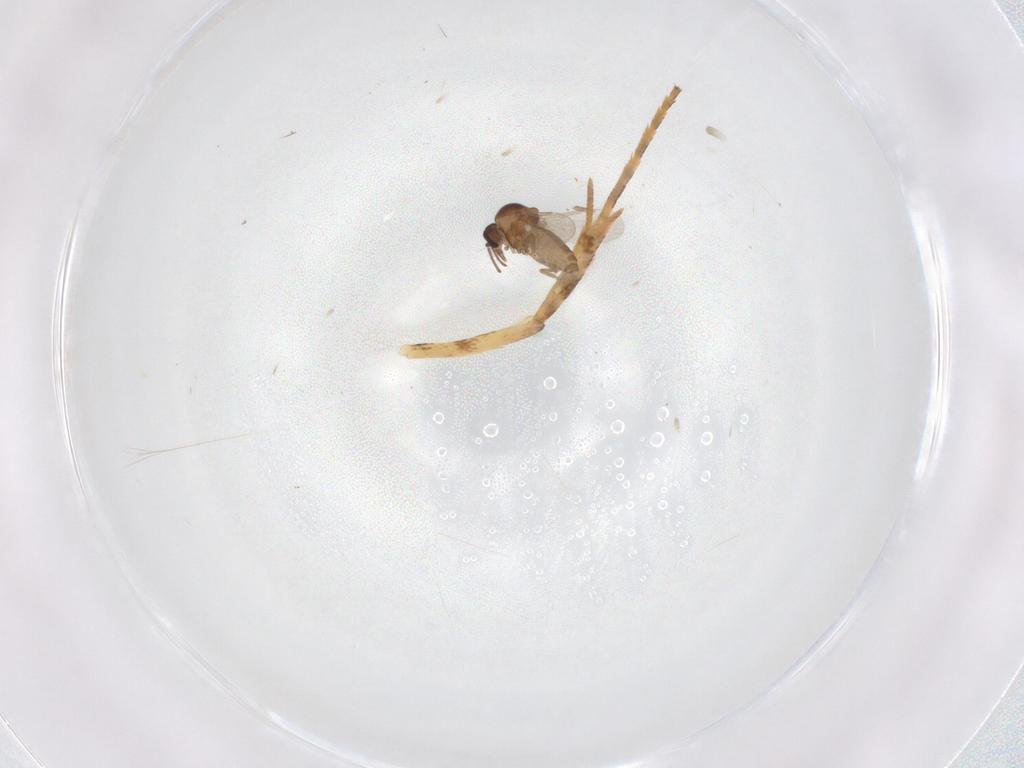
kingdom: Animalia
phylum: Arthropoda
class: Insecta
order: Diptera
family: Ceratopogonidae
